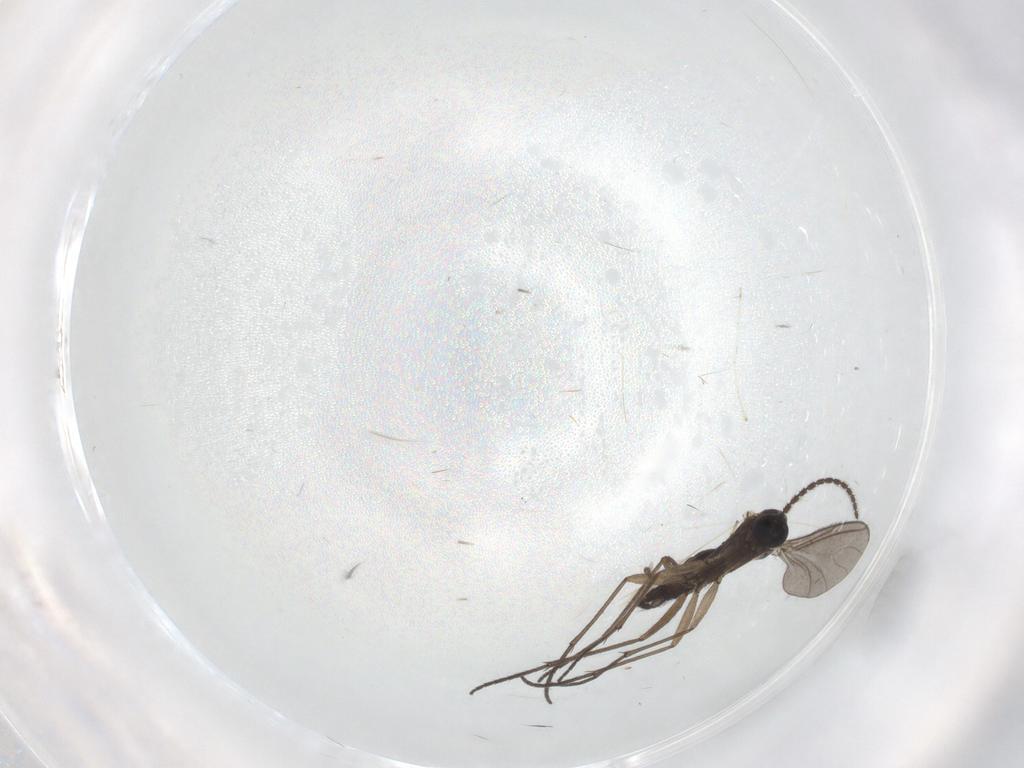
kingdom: Animalia
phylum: Arthropoda
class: Insecta
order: Diptera
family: Sciaridae
